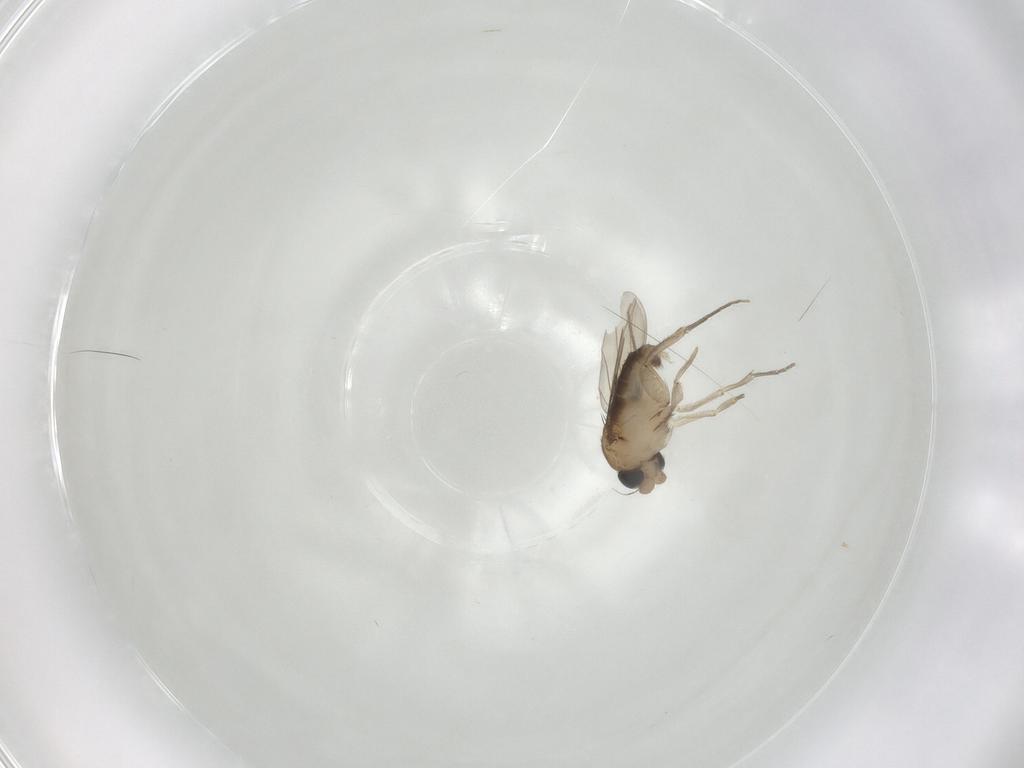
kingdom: Animalia
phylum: Arthropoda
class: Insecta
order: Diptera
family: Phoridae
